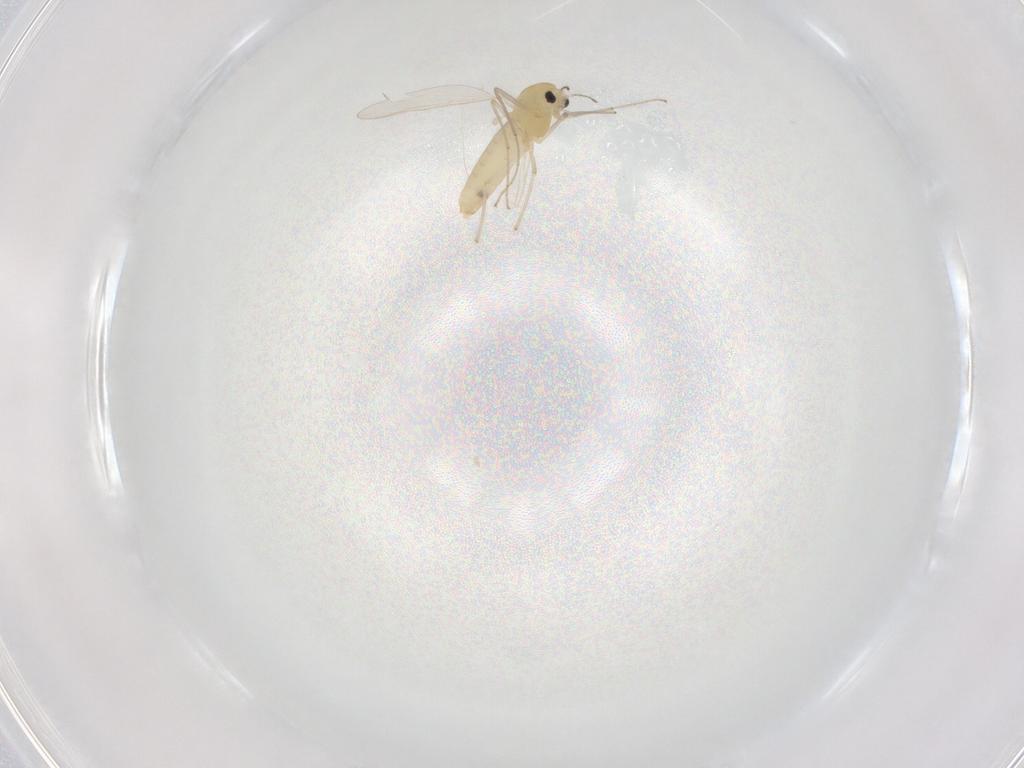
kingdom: Animalia
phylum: Arthropoda
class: Insecta
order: Diptera
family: Chironomidae
